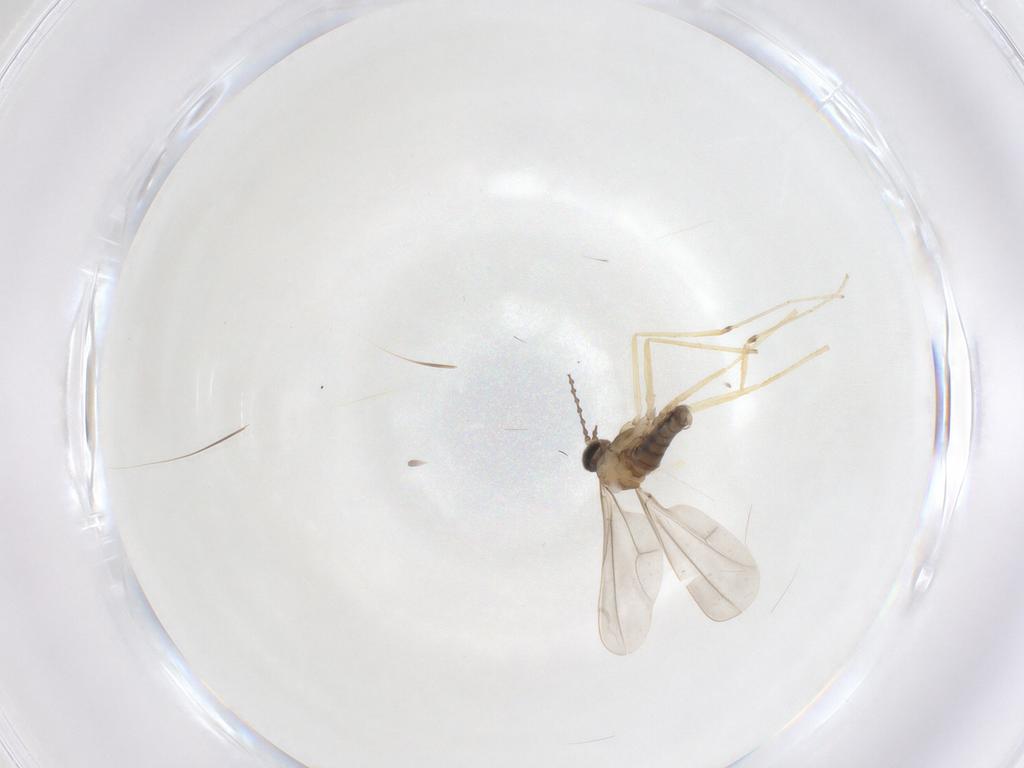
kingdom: Animalia
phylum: Arthropoda
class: Insecta
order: Diptera
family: Cecidomyiidae
